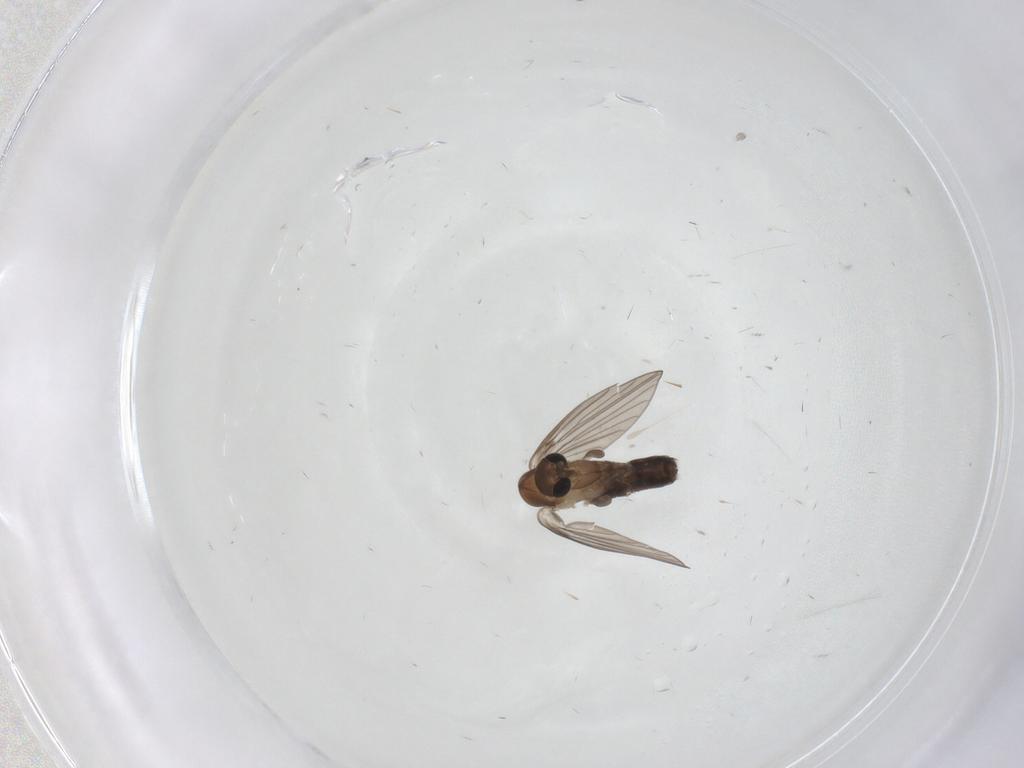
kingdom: Animalia
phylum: Arthropoda
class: Insecta
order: Diptera
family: Psychodidae
